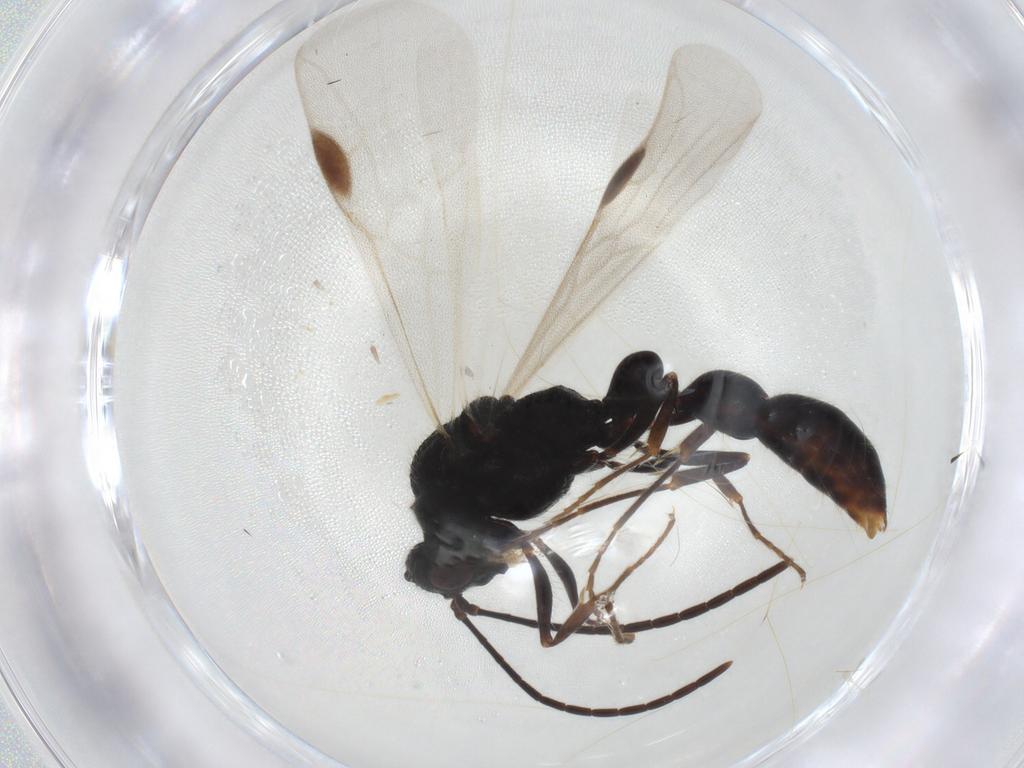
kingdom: Animalia
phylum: Arthropoda
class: Insecta
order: Hymenoptera
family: Formicidae
